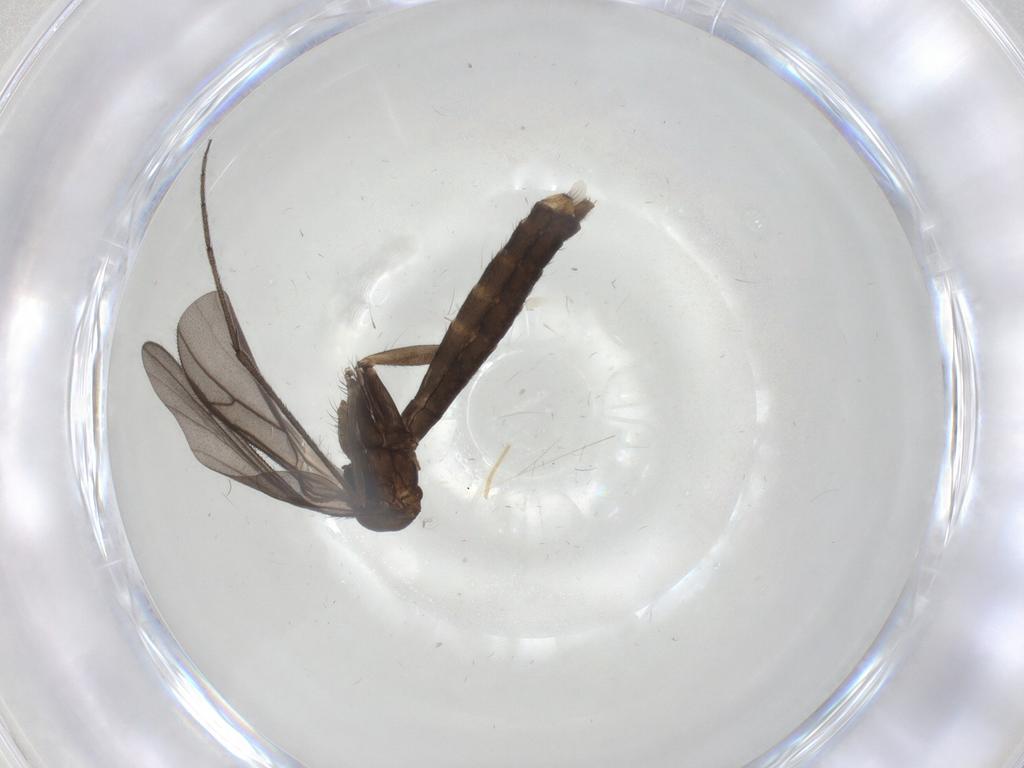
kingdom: Animalia
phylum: Arthropoda
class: Insecta
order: Diptera
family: Keroplatidae
